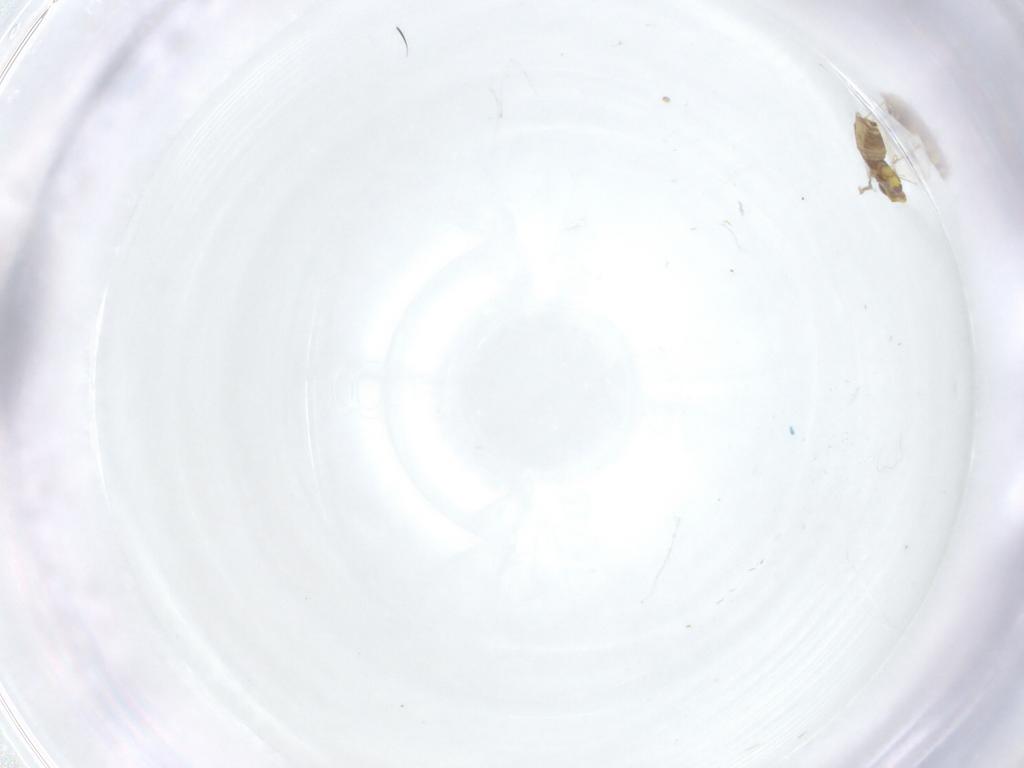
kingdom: Animalia
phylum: Arthropoda
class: Insecta
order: Hymenoptera
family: Eulophidae
